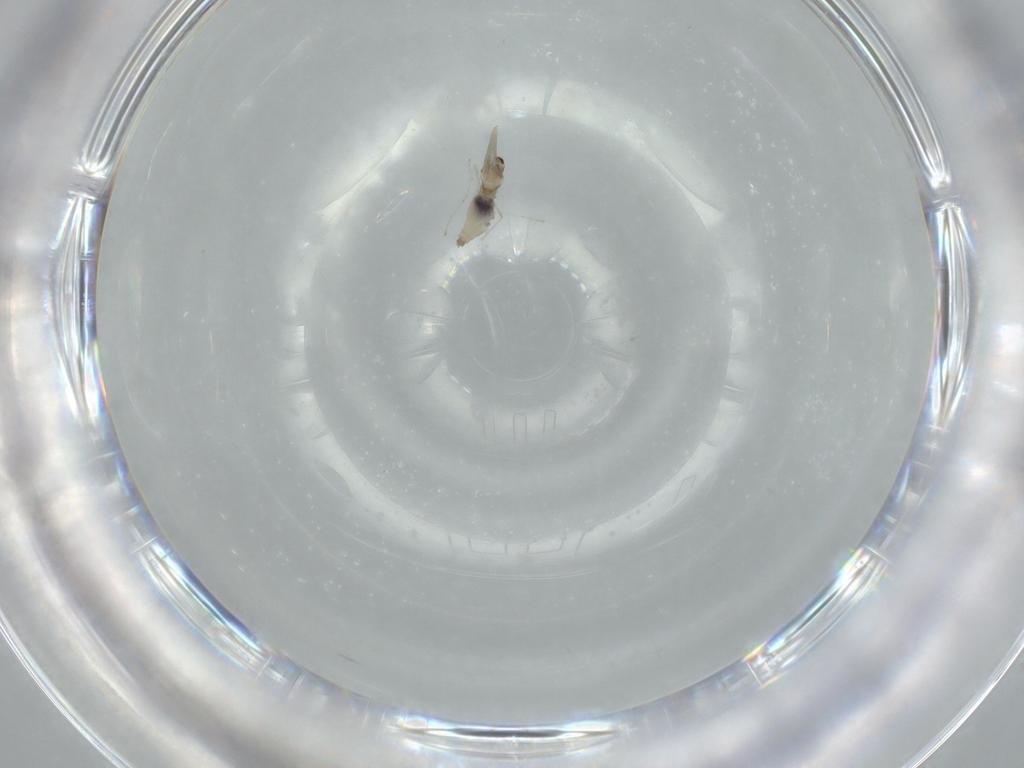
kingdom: Animalia
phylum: Arthropoda
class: Insecta
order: Diptera
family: Cecidomyiidae
